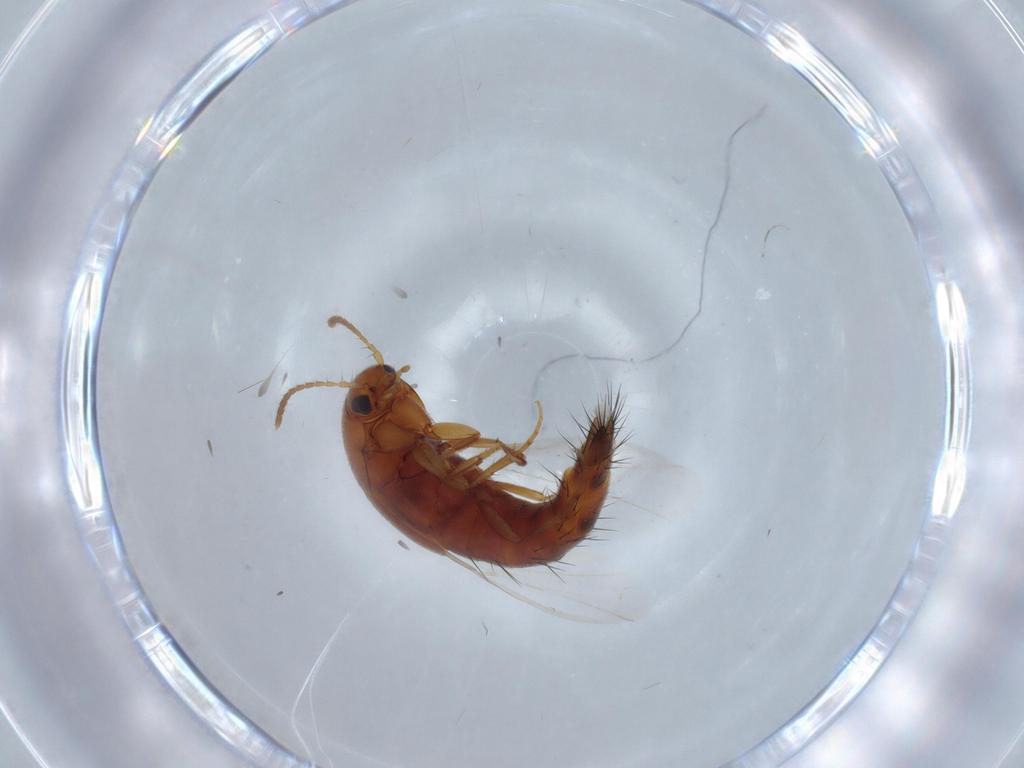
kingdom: Animalia
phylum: Arthropoda
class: Insecta
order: Coleoptera
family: Staphylinidae
